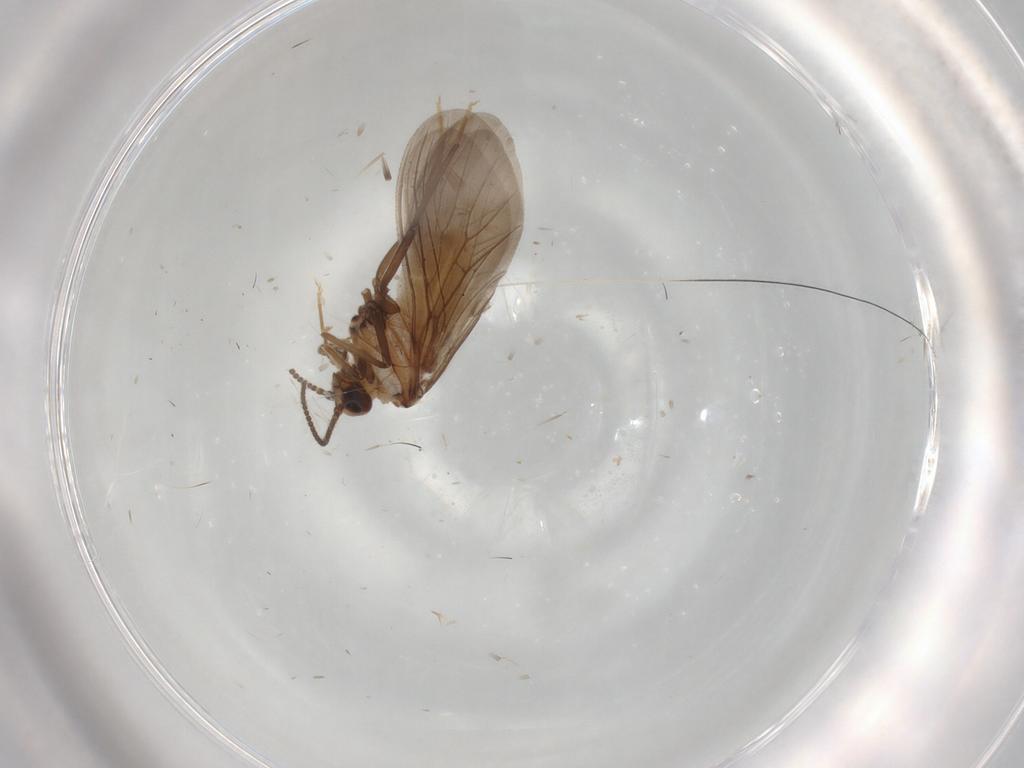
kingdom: Animalia
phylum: Arthropoda
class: Insecta
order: Neuroptera
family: Coniopterygidae
